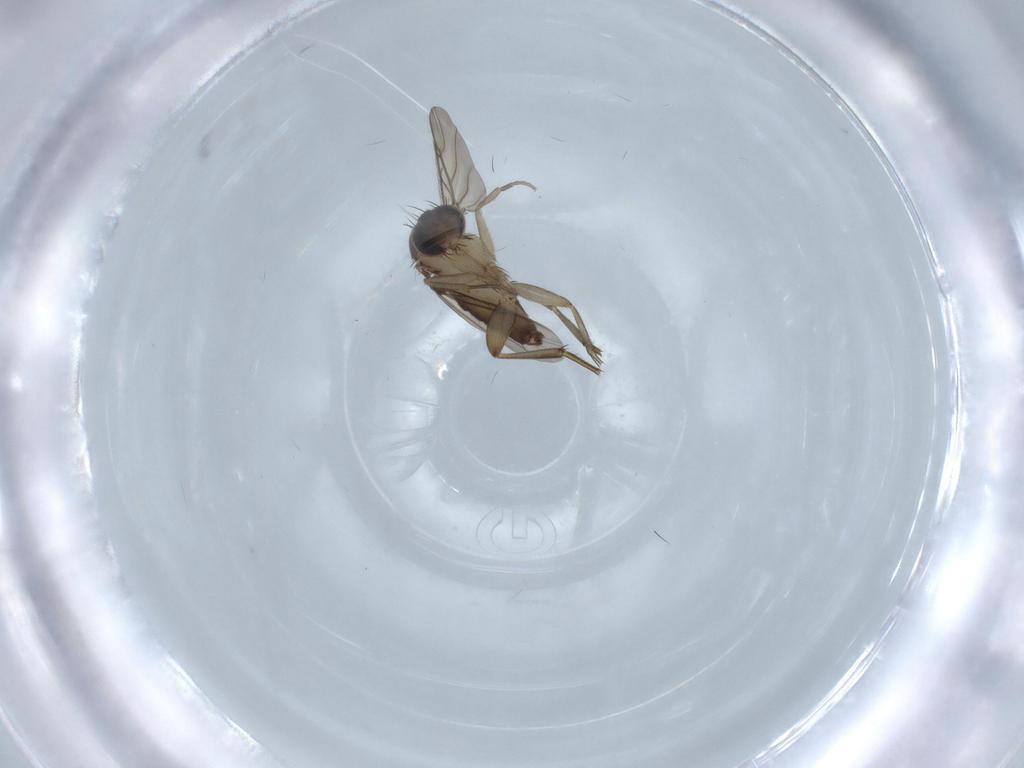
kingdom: Animalia
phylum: Arthropoda
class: Insecta
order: Diptera
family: Phoridae
